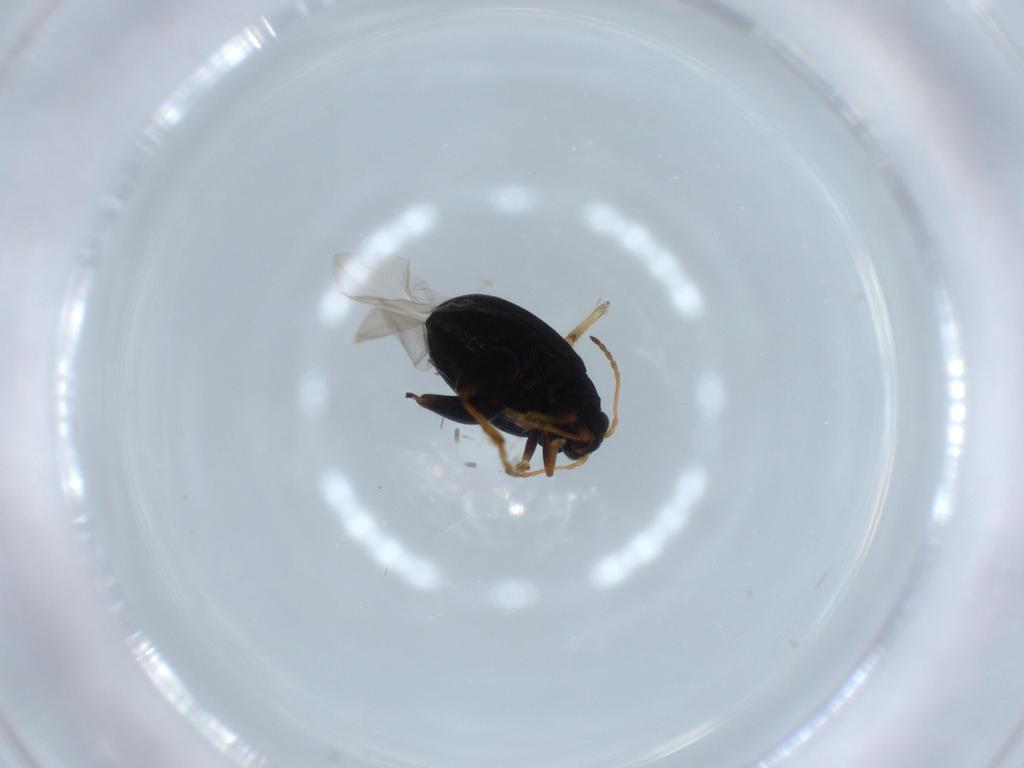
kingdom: Animalia
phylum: Arthropoda
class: Insecta
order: Coleoptera
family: Chrysomelidae
